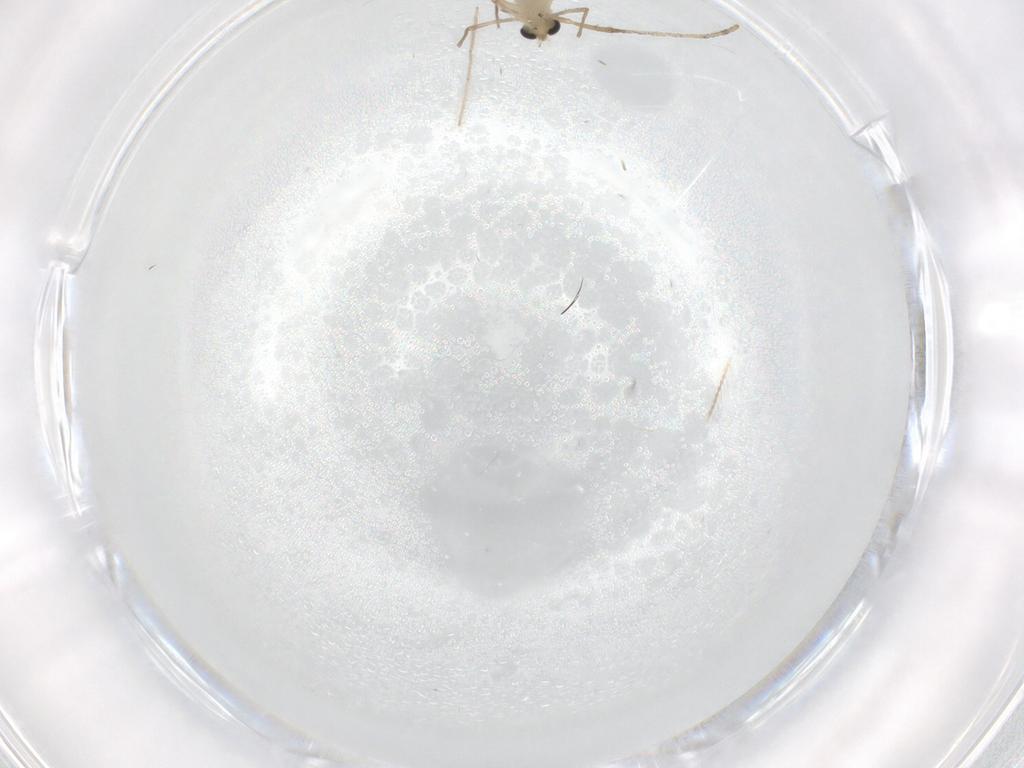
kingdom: Animalia
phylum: Arthropoda
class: Insecta
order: Diptera
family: Cecidomyiidae
